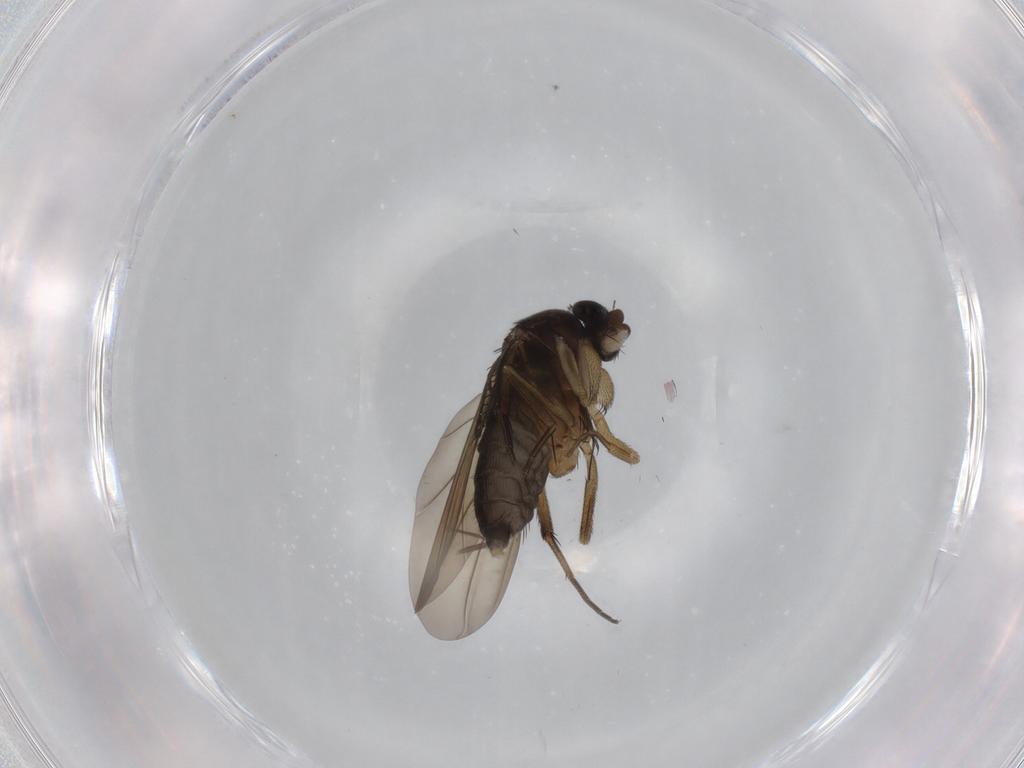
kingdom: Animalia
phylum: Arthropoda
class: Insecta
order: Diptera
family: Phoridae
